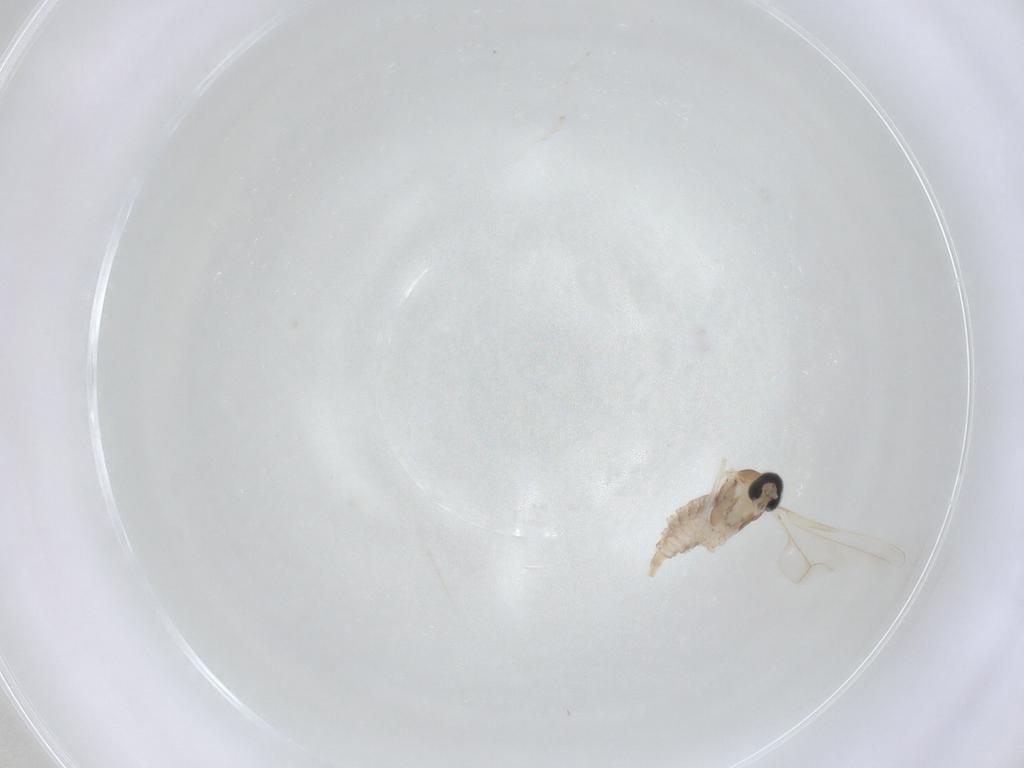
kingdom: Animalia
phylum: Arthropoda
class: Insecta
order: Diptera
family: Cecidomyiidae
